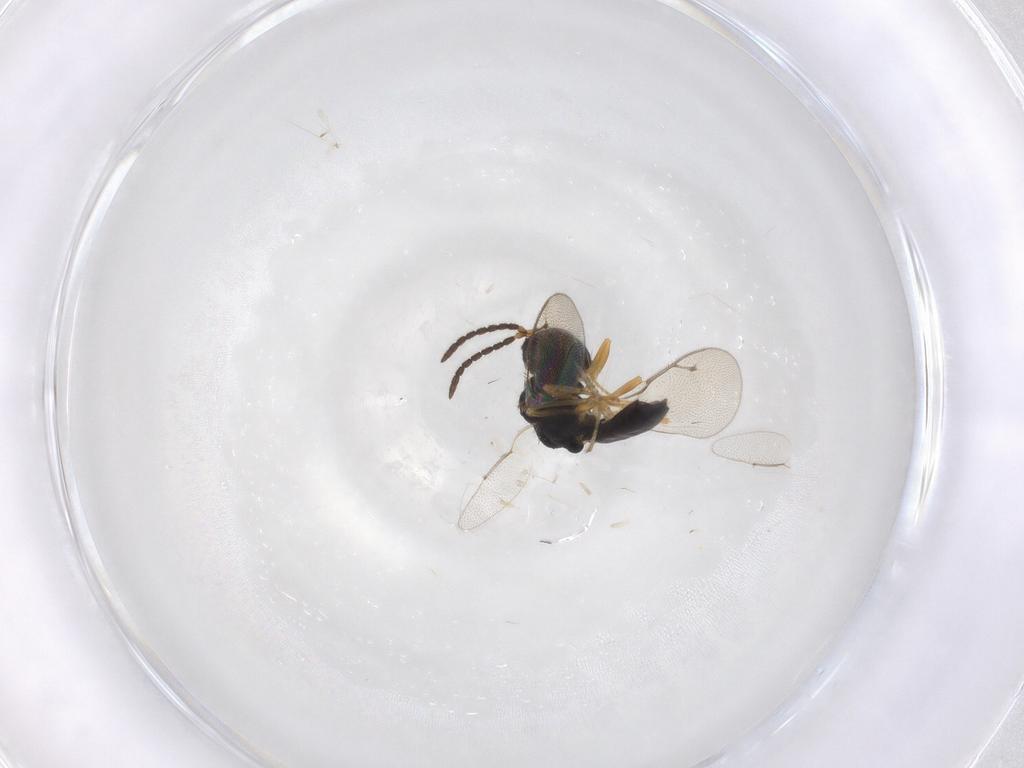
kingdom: Animalia
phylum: Arthropoda
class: Insecta
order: Hymenoptera
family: Pteromalidae
